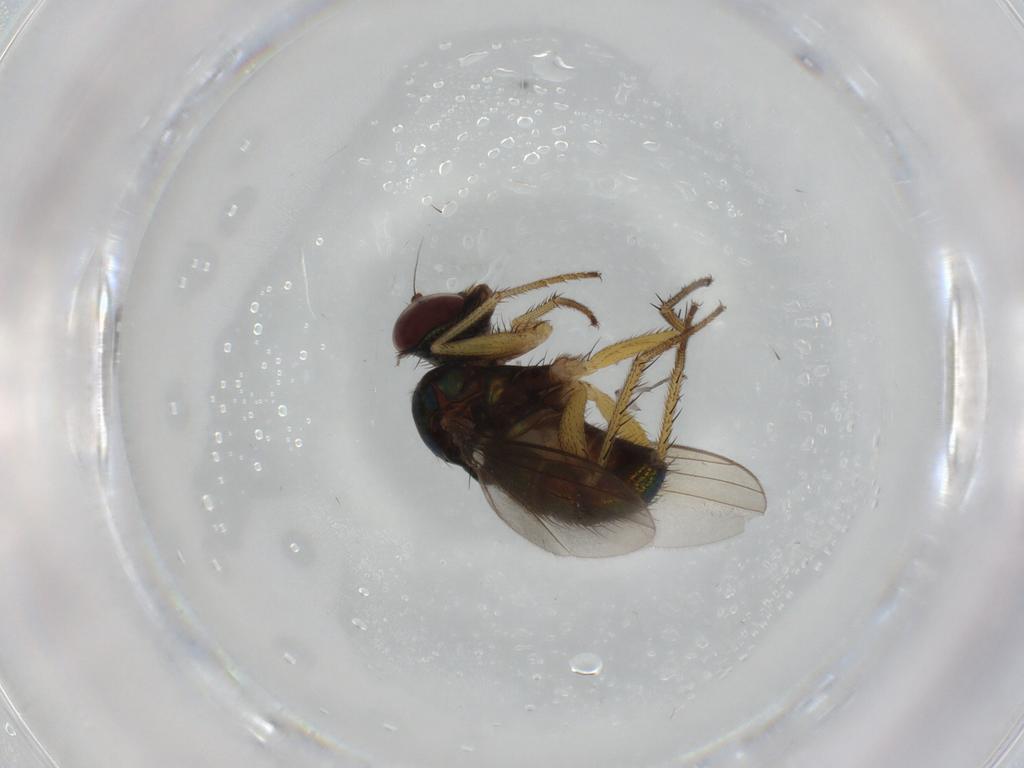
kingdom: Animalia
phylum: Arthropoda
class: Insecta
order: Diptera
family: Dolichopodidae
